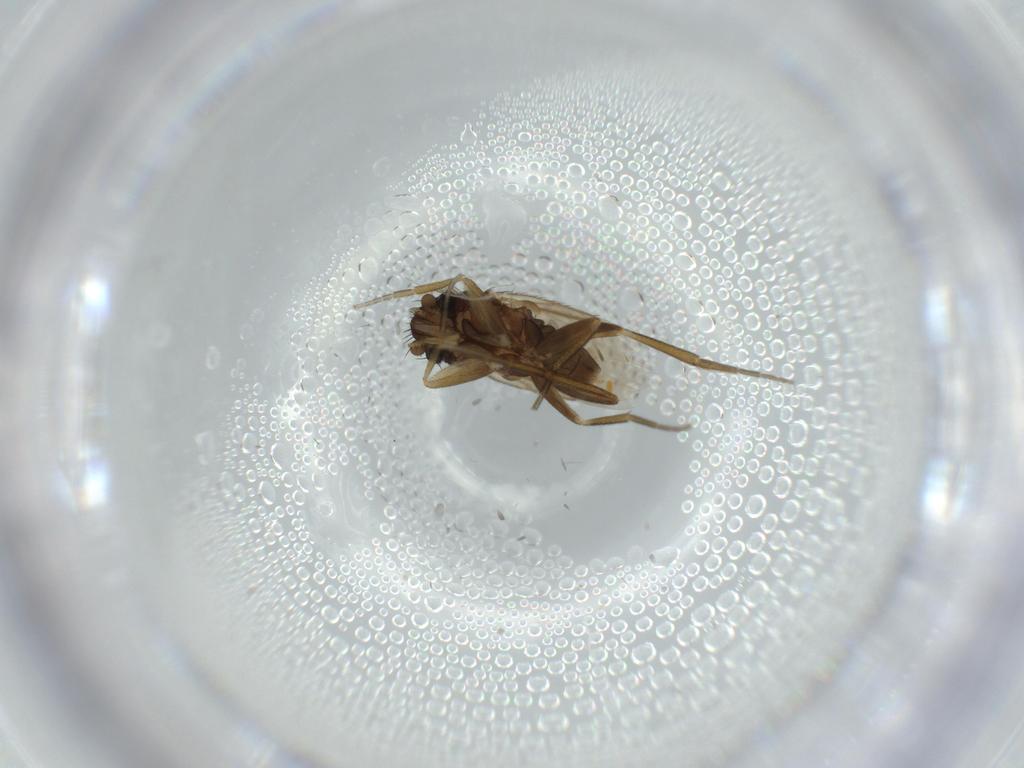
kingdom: Animalia
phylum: Arthropoda
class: Insecta
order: Diptera
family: Phoridae
